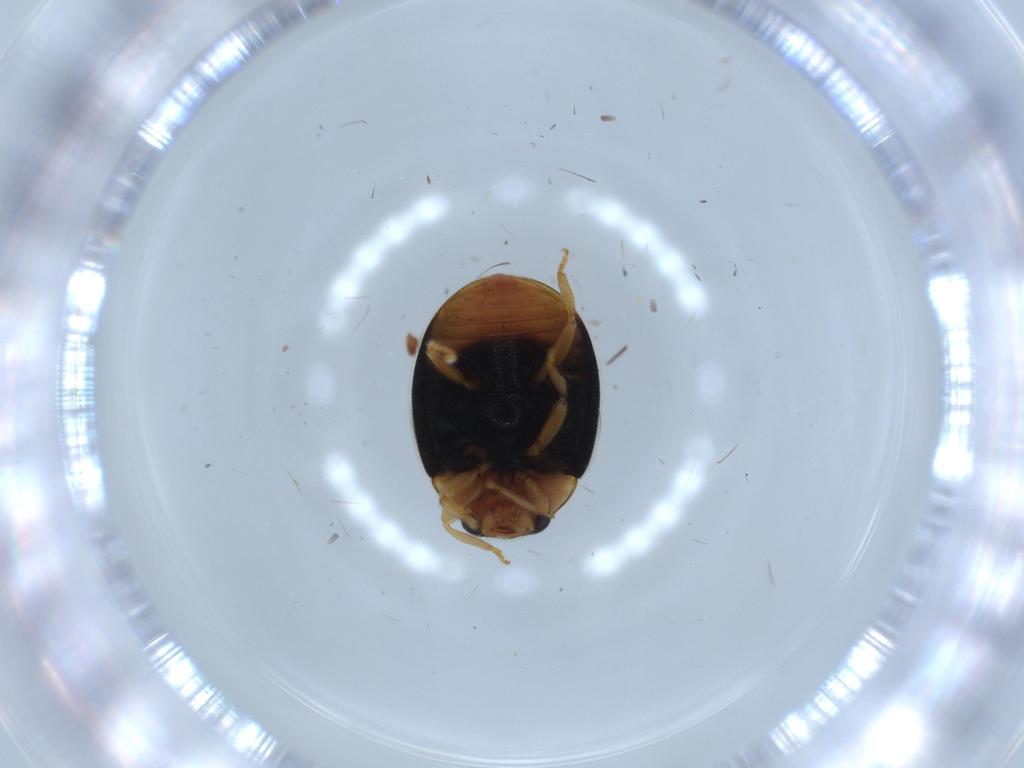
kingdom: Animalia
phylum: Arthropoda
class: Insecta
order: Coleoptera
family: Coccinellidae
